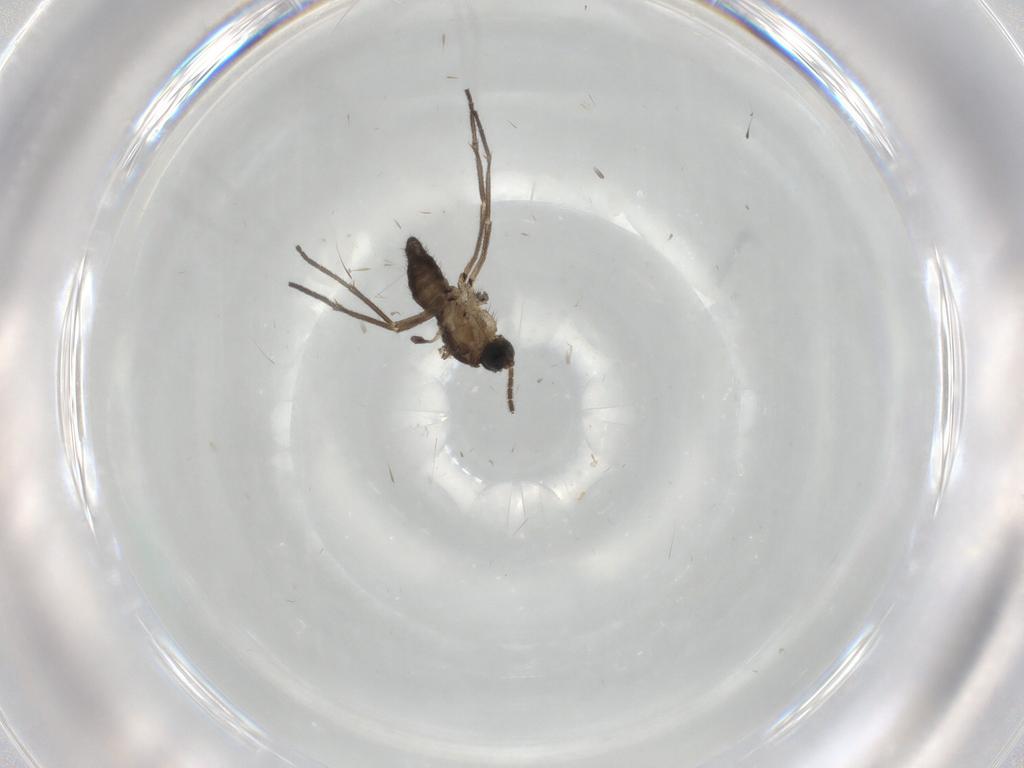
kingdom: Animalia
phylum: Arthropoda
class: Insecta
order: Diptera
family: Sciaridae
